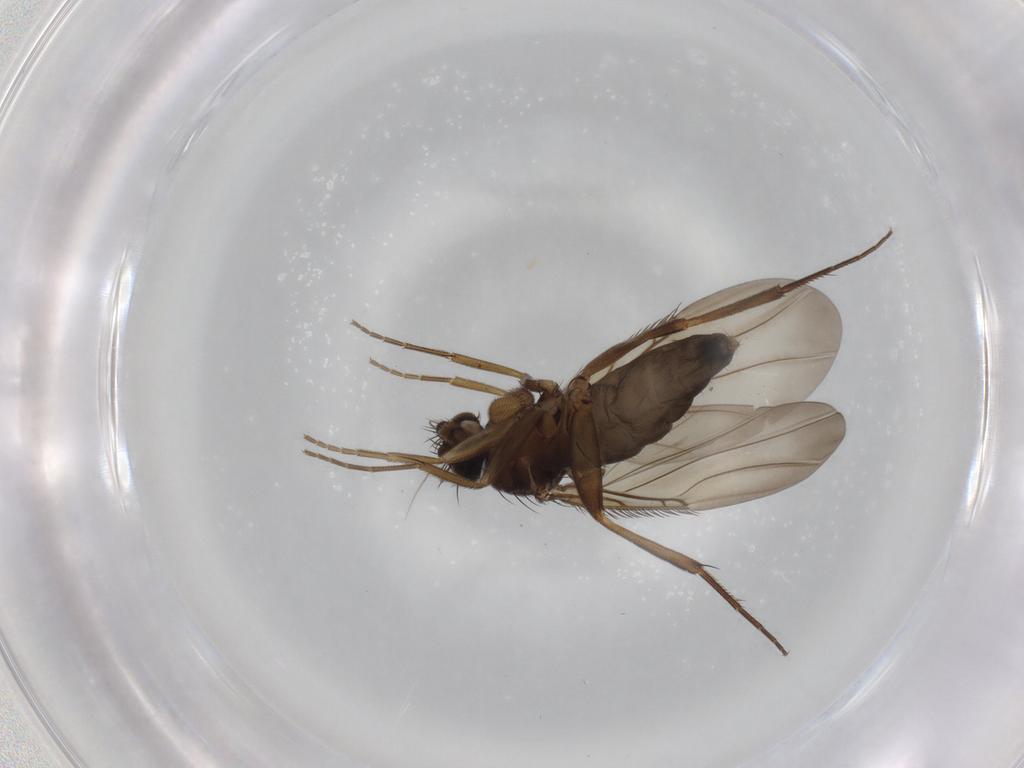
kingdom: Animalia
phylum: Arthropoda
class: Insecta
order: Diptera
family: Phoridae
